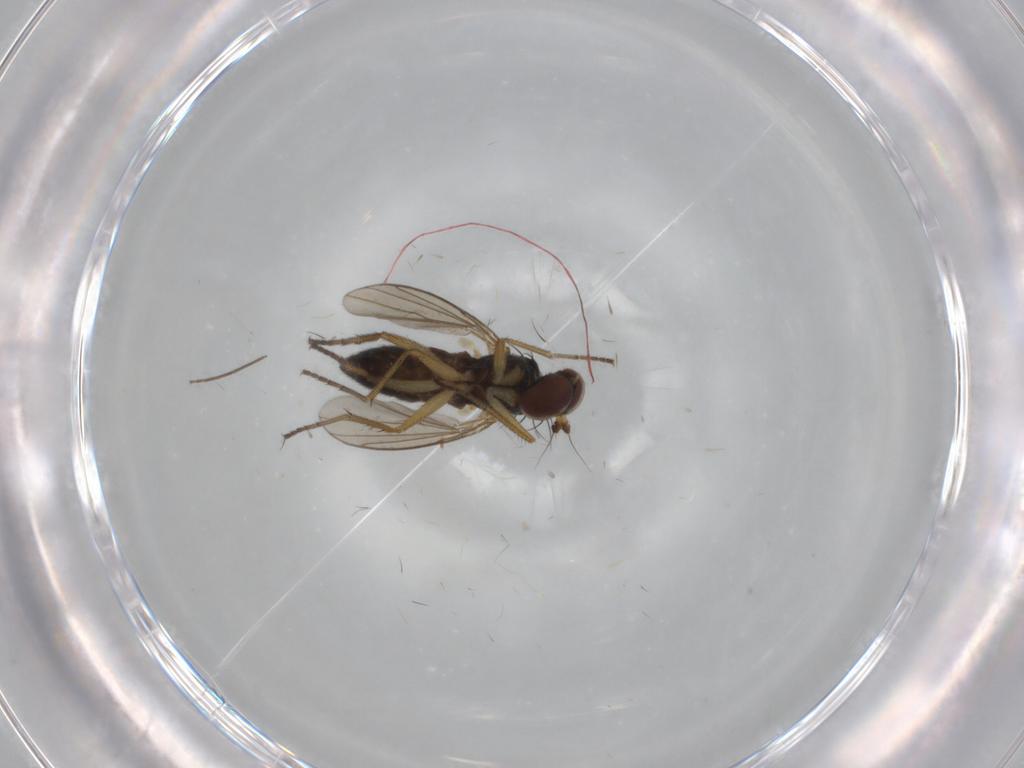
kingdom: Animalia
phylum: Arthropoda
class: Insecta
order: Diptera
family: Dolichopodidae
